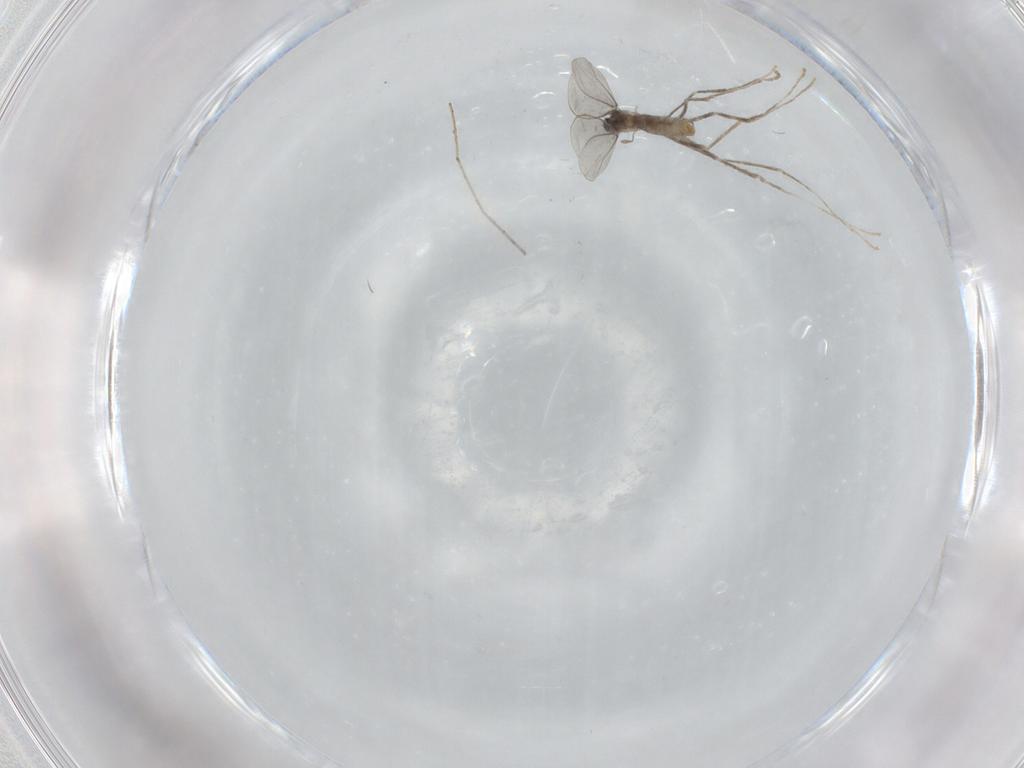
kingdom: Animalia
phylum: Arthropoda
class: Insecta
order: Diptera
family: Cecidomyiidae
